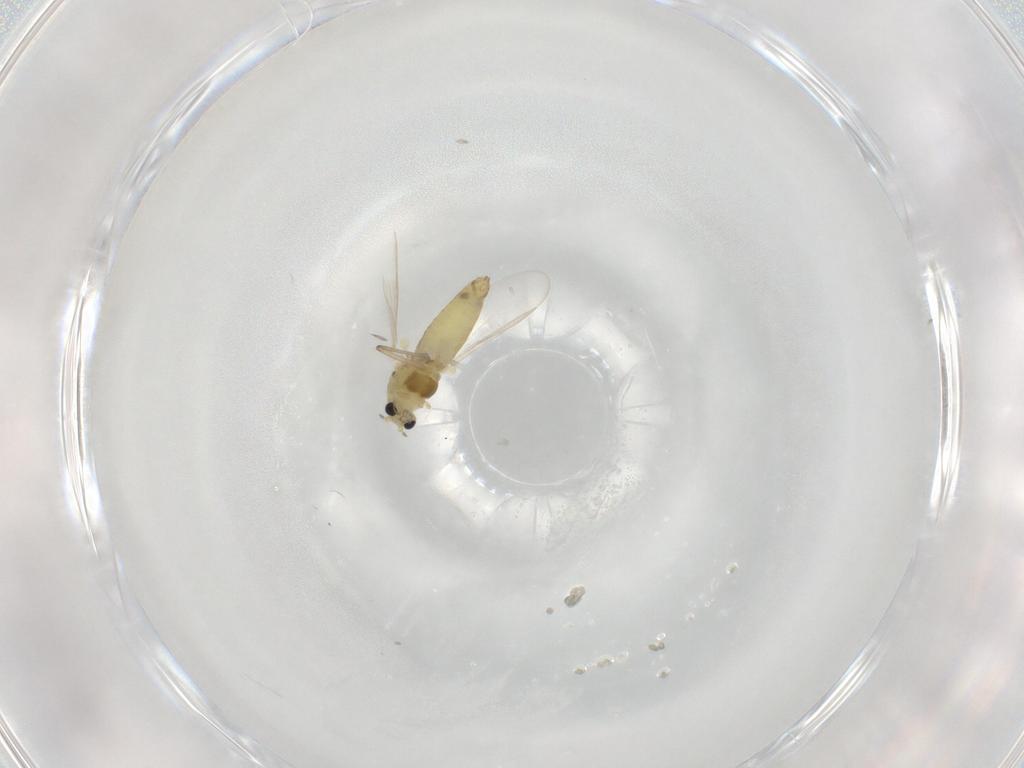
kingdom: Animalia
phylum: Arthropoda
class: Insecta
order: Diptera
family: Chironomidae
